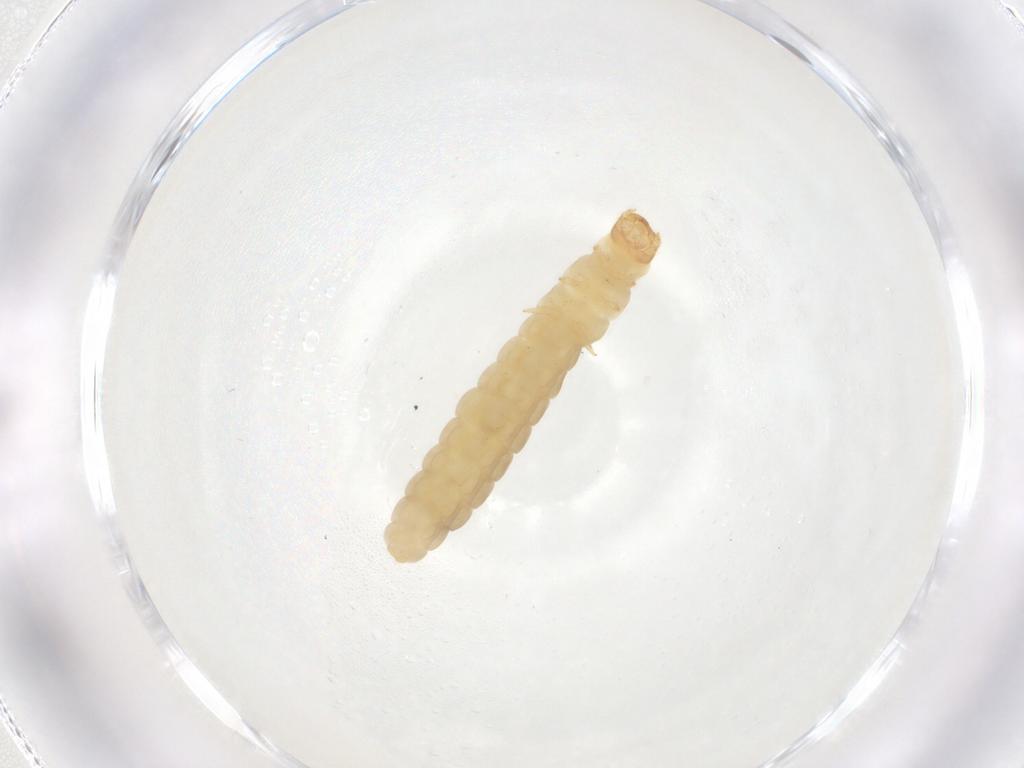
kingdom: Animalia
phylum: Arthropoda
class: Insecta
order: Coleoptera
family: Cantharidae
